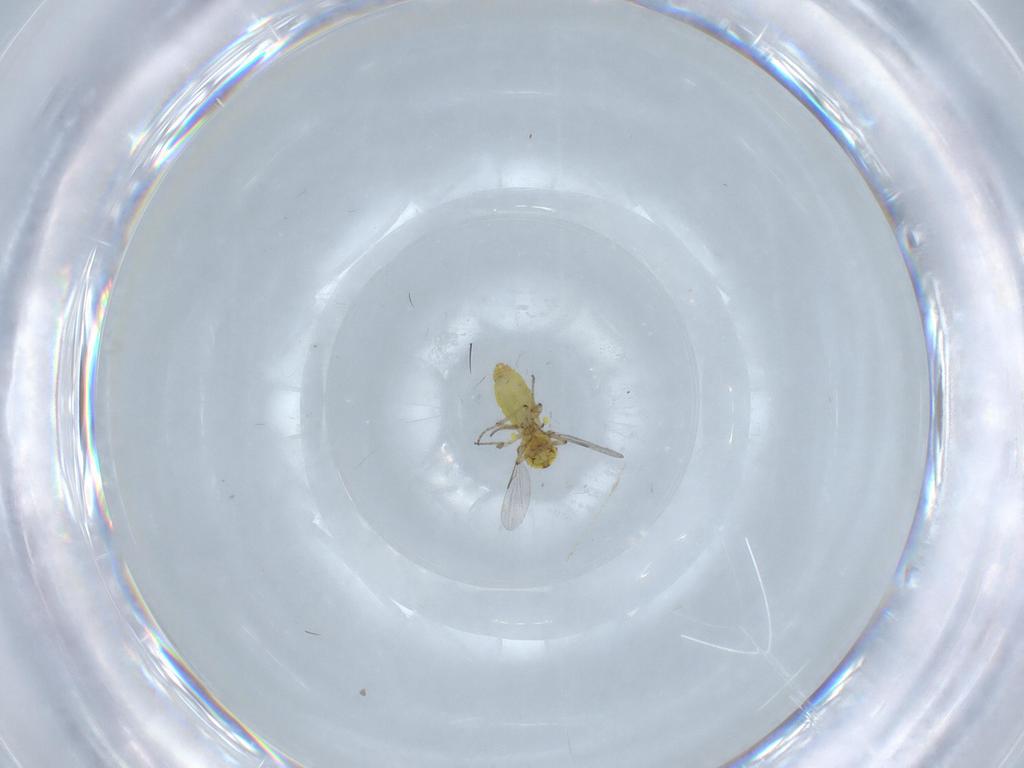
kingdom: Animalia
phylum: Arthropoda
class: Insecta
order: Diptera
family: Ceratopogonidae
